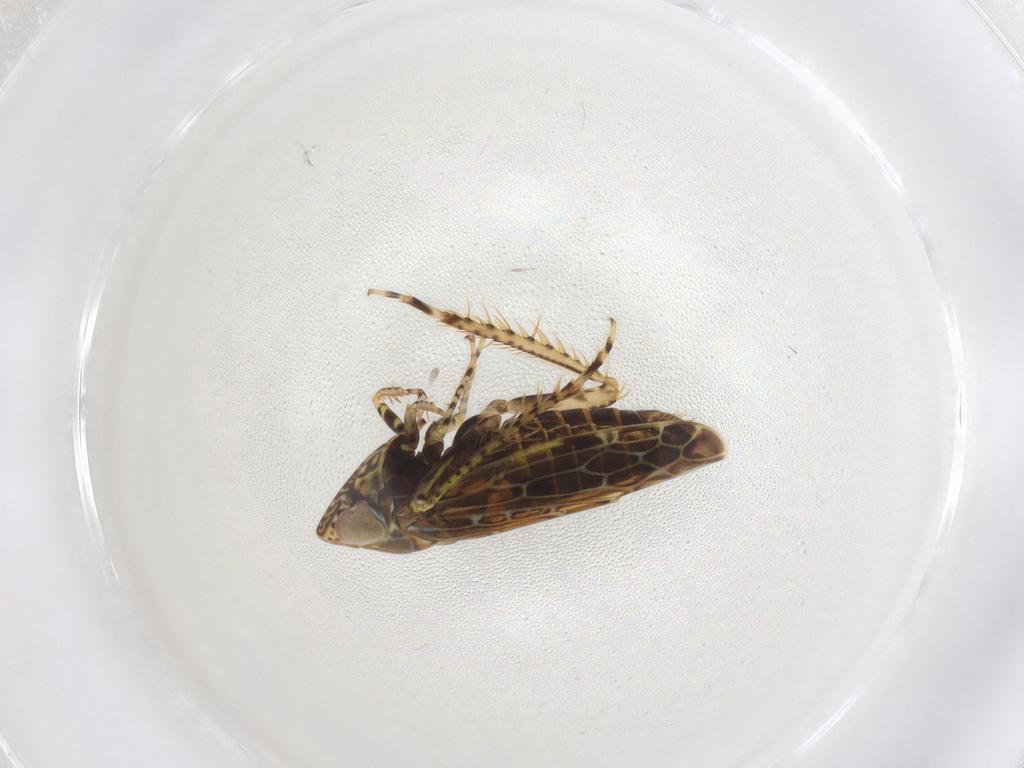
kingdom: Animalia
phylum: Arthropoda
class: Insecta
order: Hemiptera
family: Cicadellidae
